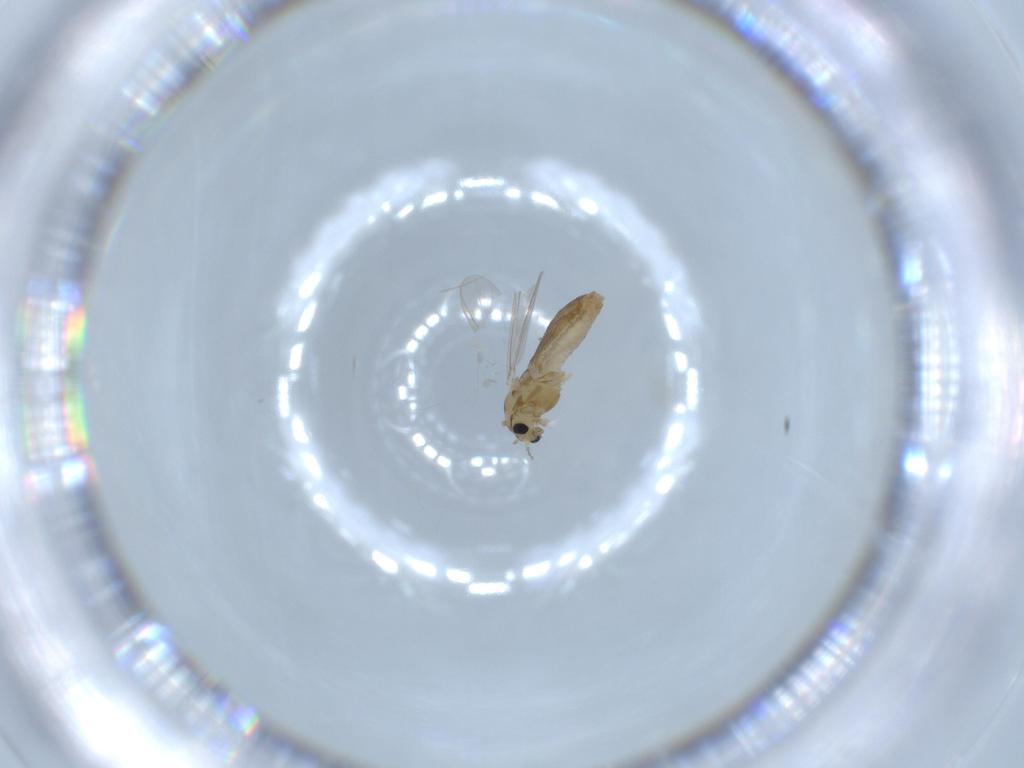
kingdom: Animalia
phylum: Arthropoda
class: Insecta
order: Diptera
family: Chironomidae
